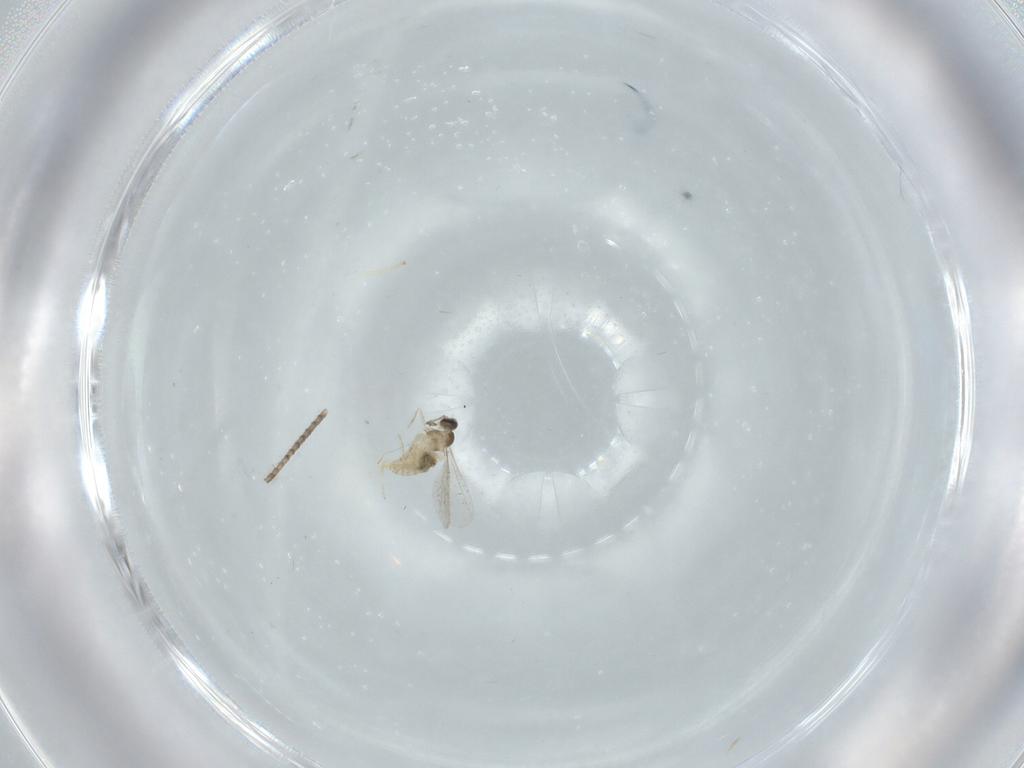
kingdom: Animalia
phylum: Arthropoda
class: Insecta
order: Diptera
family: Cecidomyiidae
